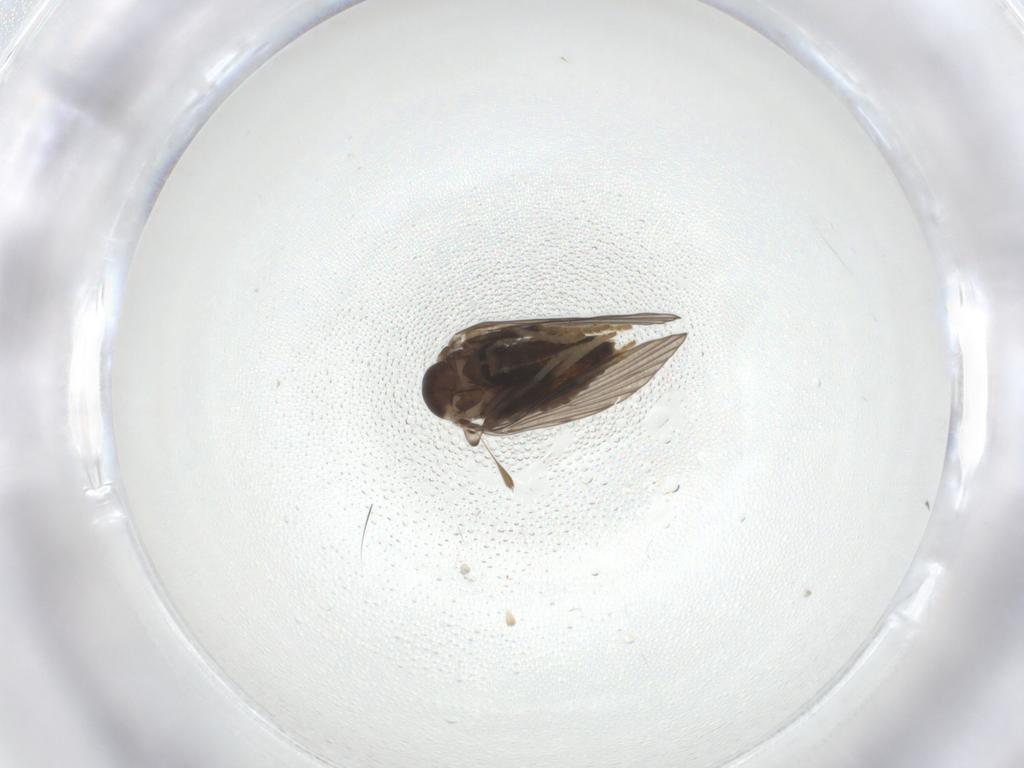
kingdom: Animalia
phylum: Arthropoda
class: Insecta
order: Diptera
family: Psychodidae
